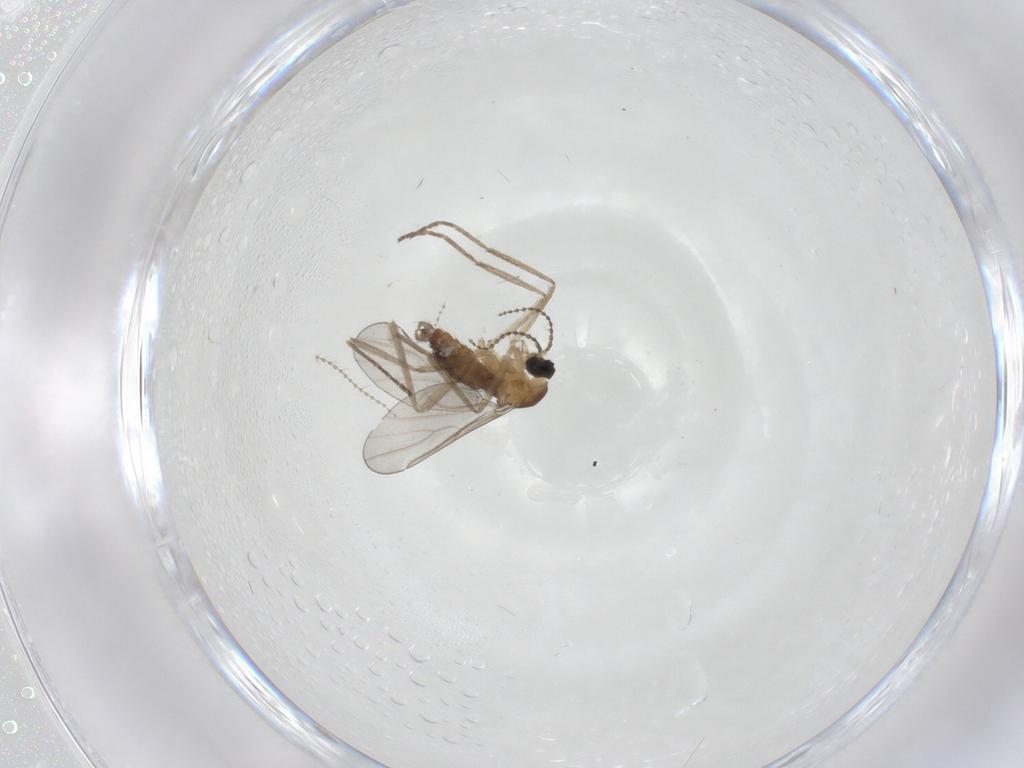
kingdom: Animalia
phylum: Arthropoda
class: Insecta
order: Diptera
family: Cecidomyiidae
